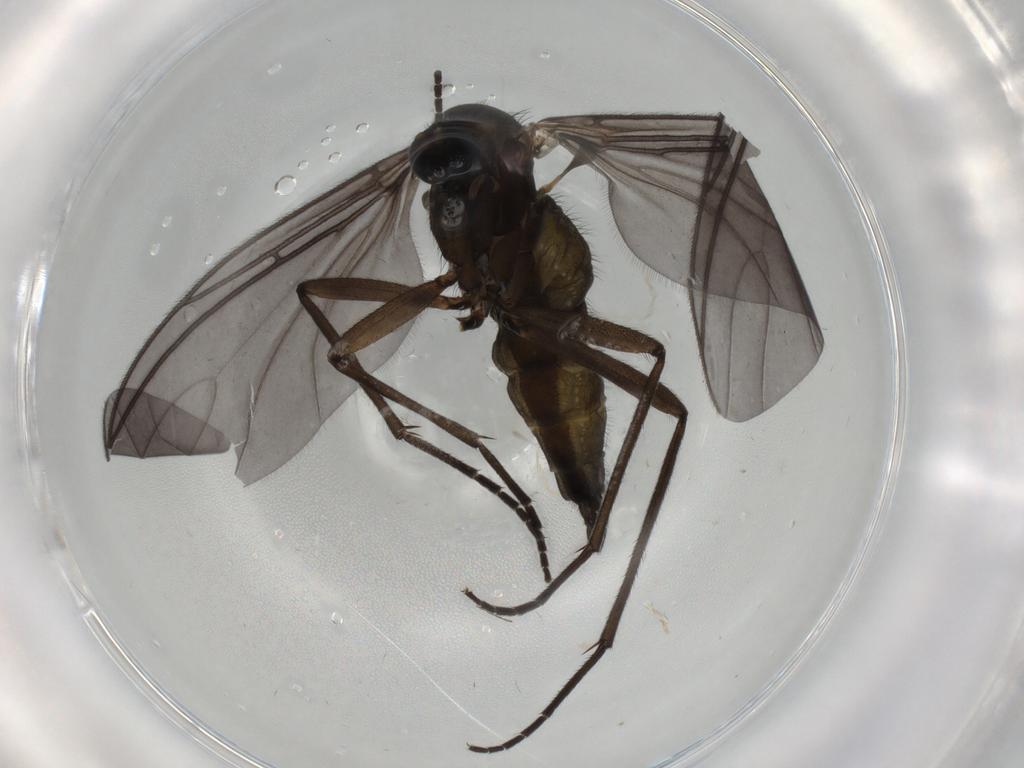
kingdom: Animalia
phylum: Arthropoda
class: Insecta
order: Diptera
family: Sciaridae
